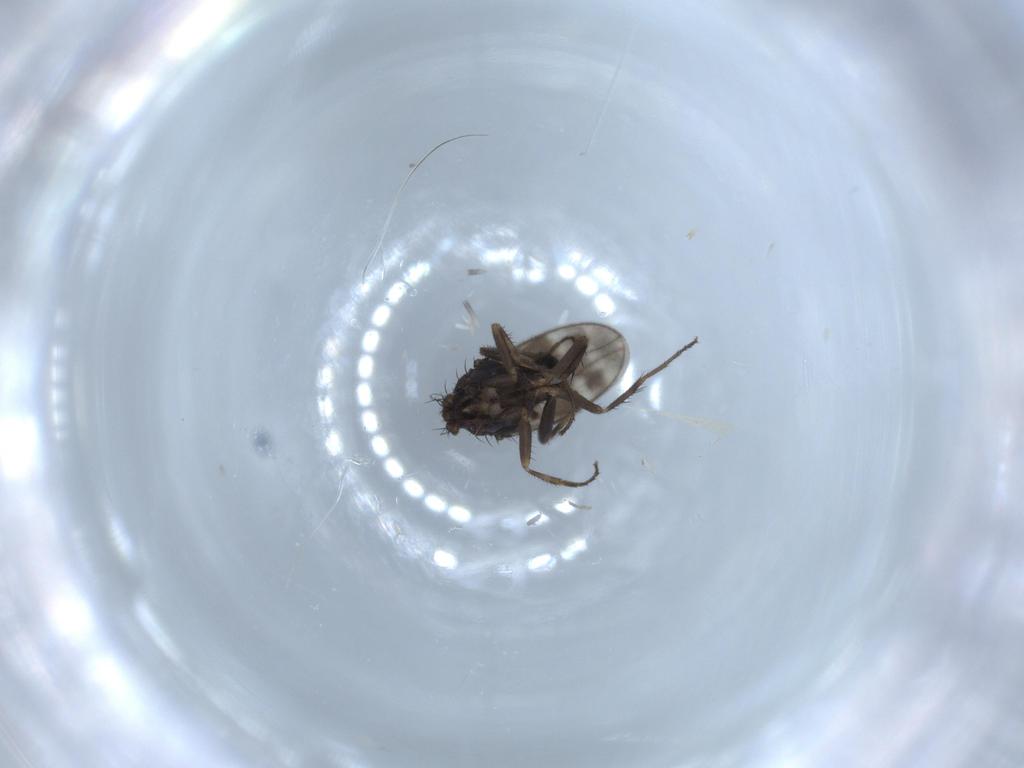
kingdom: Animalia
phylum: Arthropoda
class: Insecta
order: Diptera
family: Sphaeroceridae
